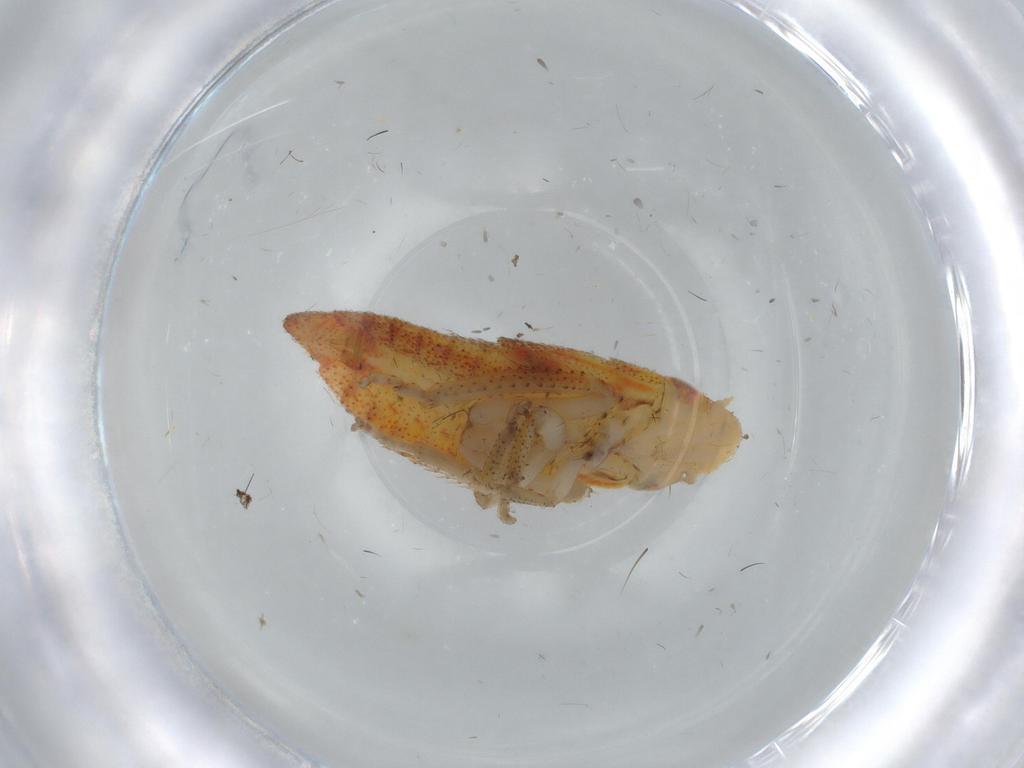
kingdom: Animalia
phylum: Arthropoda
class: Insecta
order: Hemiptera
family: Cicadellidae
